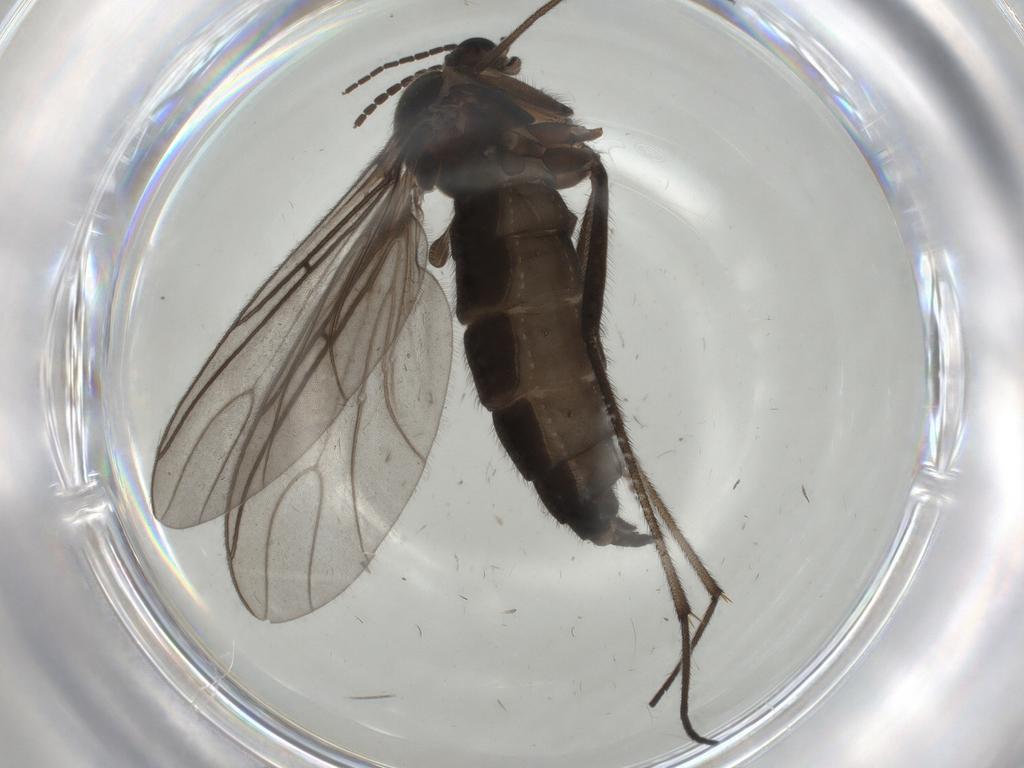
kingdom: Animalia
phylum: Arthropoda
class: Insecta
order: Diptera
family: Sciaridae
